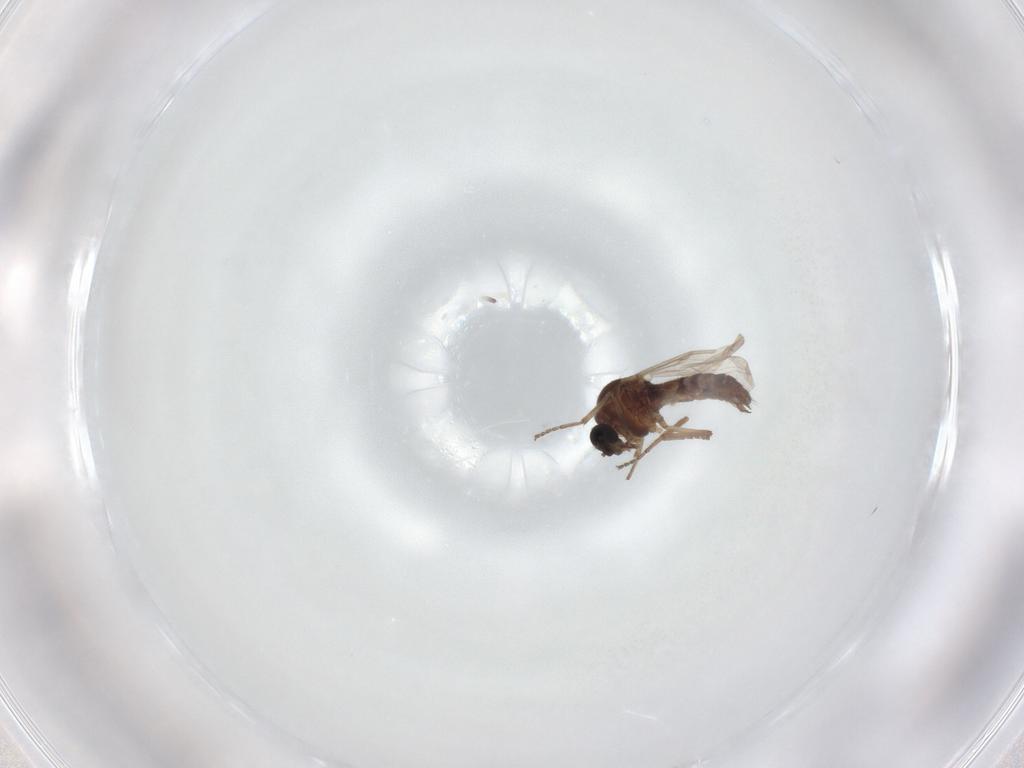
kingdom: Animalia
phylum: Arthropoda
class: Insecta
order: Diptera
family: Ceratopogonidae
